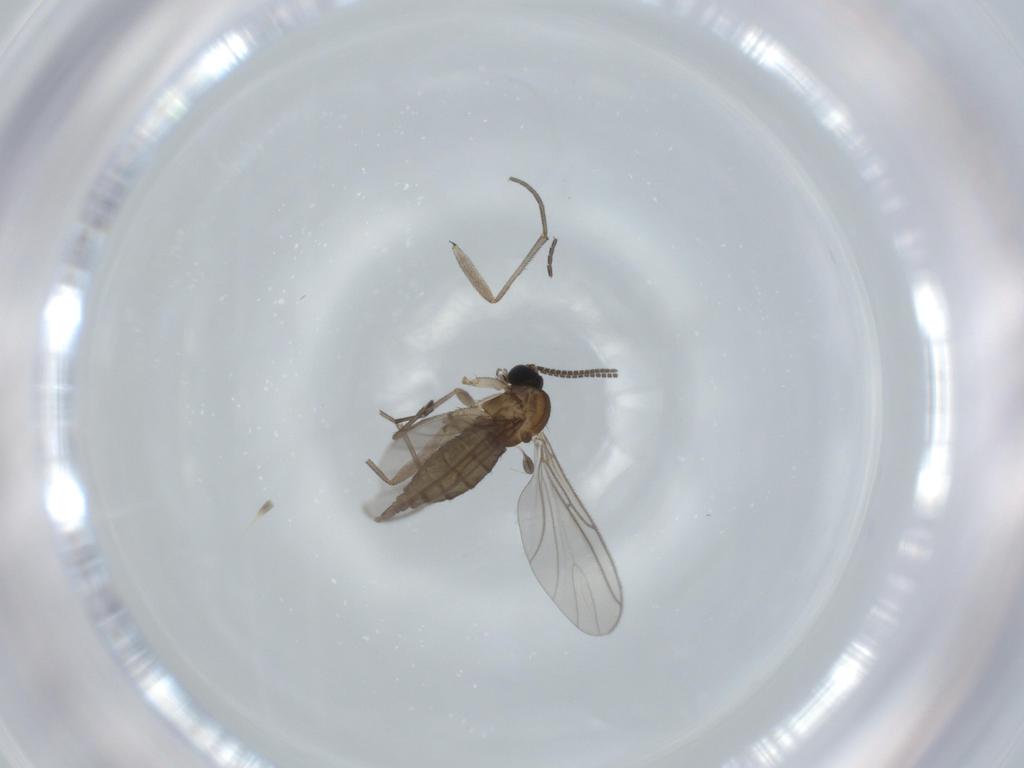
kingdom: Animalia
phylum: Arthropoda
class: Insecta
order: Diptera
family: Sciaridae
